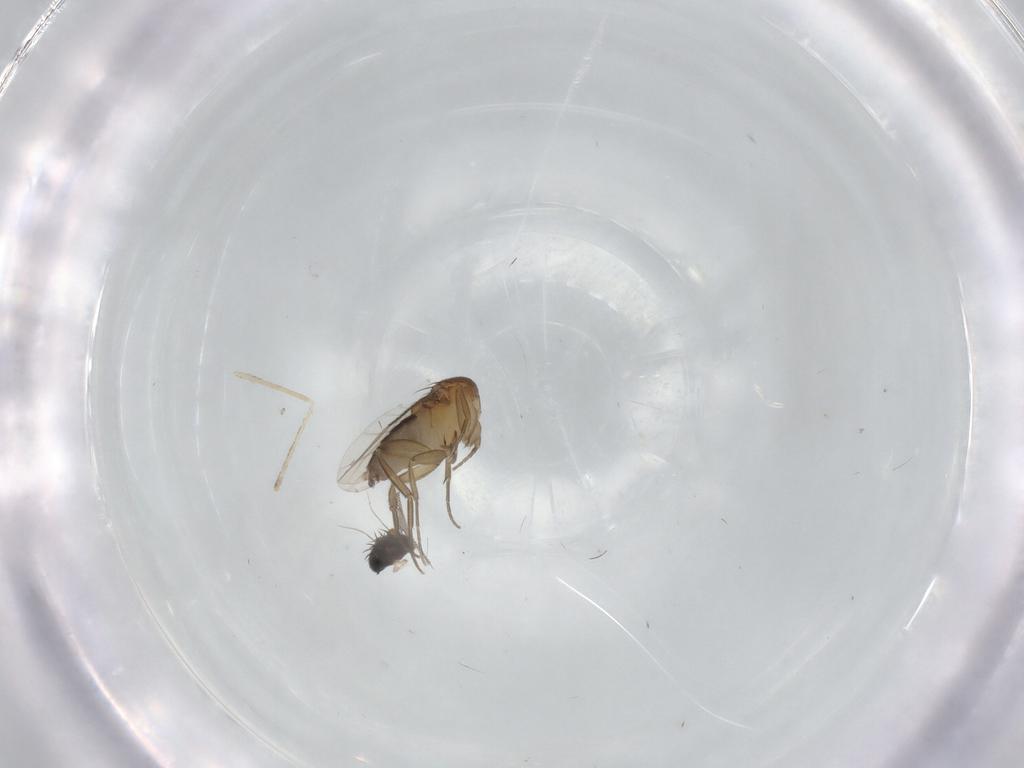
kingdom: Animalia
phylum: Arthropoda
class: Insecta
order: Diptera
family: Phoridae
